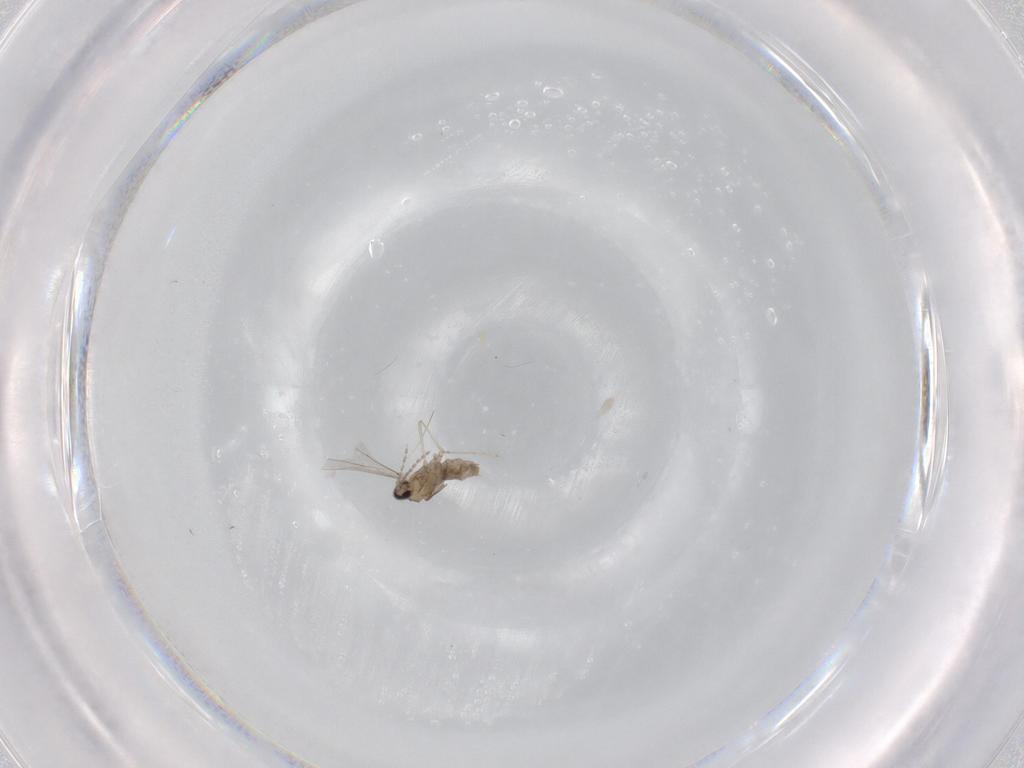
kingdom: Animalia
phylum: Arthropoda
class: Insecta
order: Diptera
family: Cecidomyiidae
